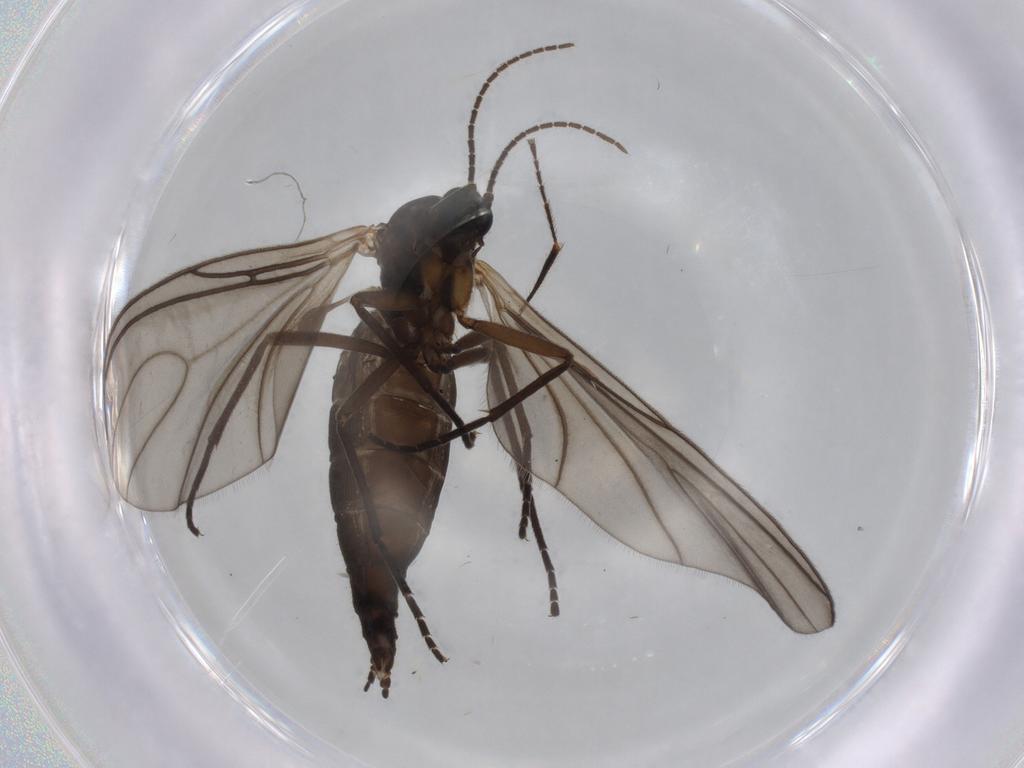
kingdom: Animalia
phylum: Arthropoda
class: Insecta
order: Diptera
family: Sciaridae
